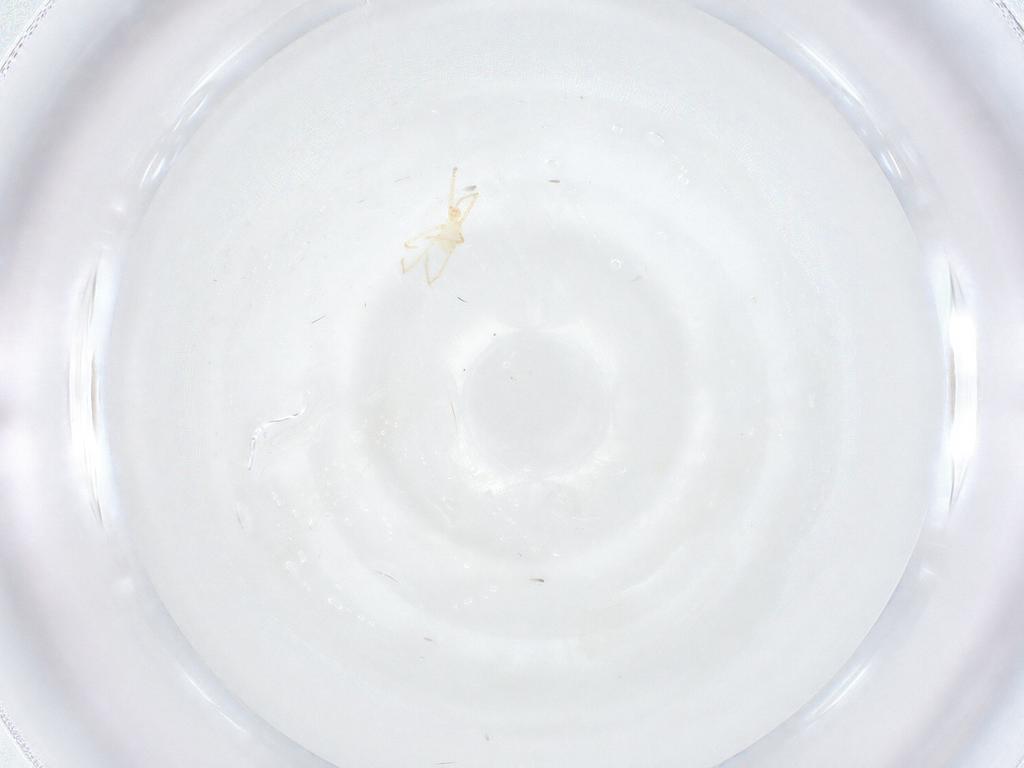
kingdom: Animalia
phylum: Arthropoda
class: Arachnida
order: Trombidiformes
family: Erythraeidae
